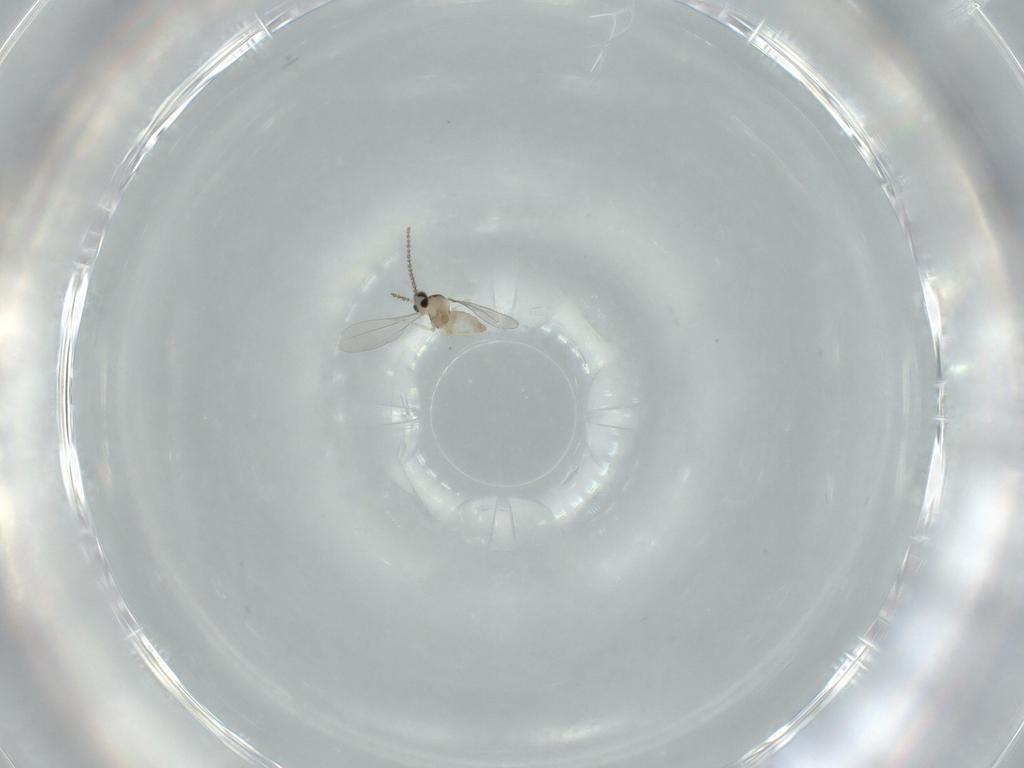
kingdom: Animalia
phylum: Arthropoda
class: Insecta
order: Diptera
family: Cecidomyiidae
